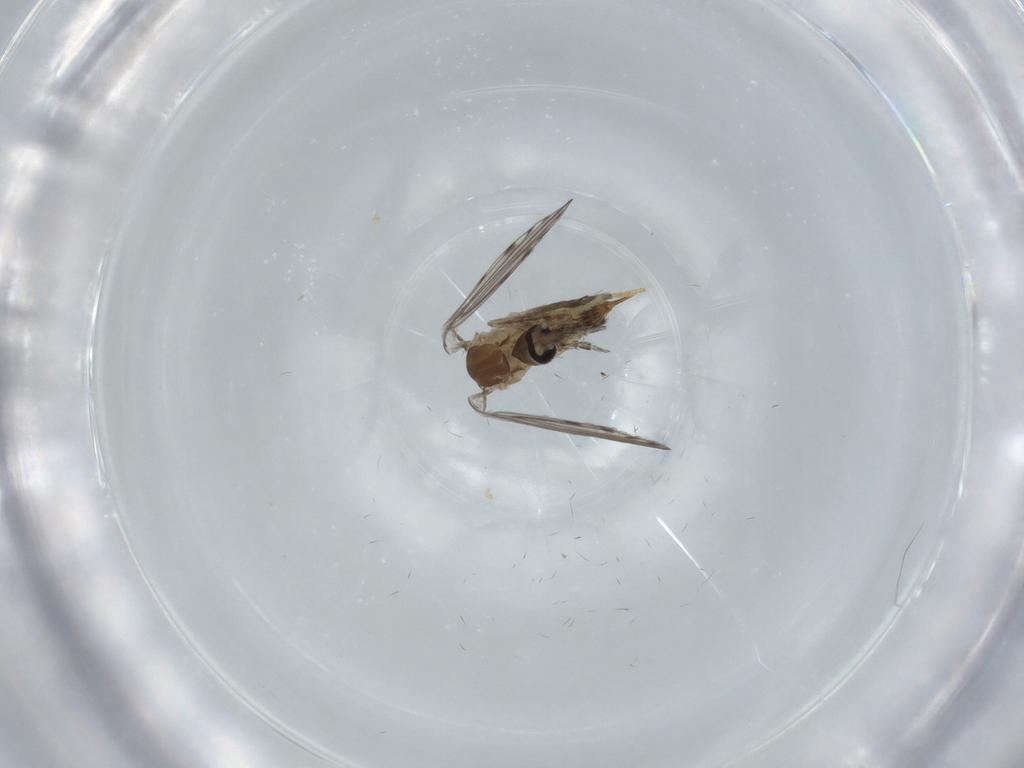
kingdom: Animalia
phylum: Arthropoda
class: Insecta
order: Diptera
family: Psychodidae
